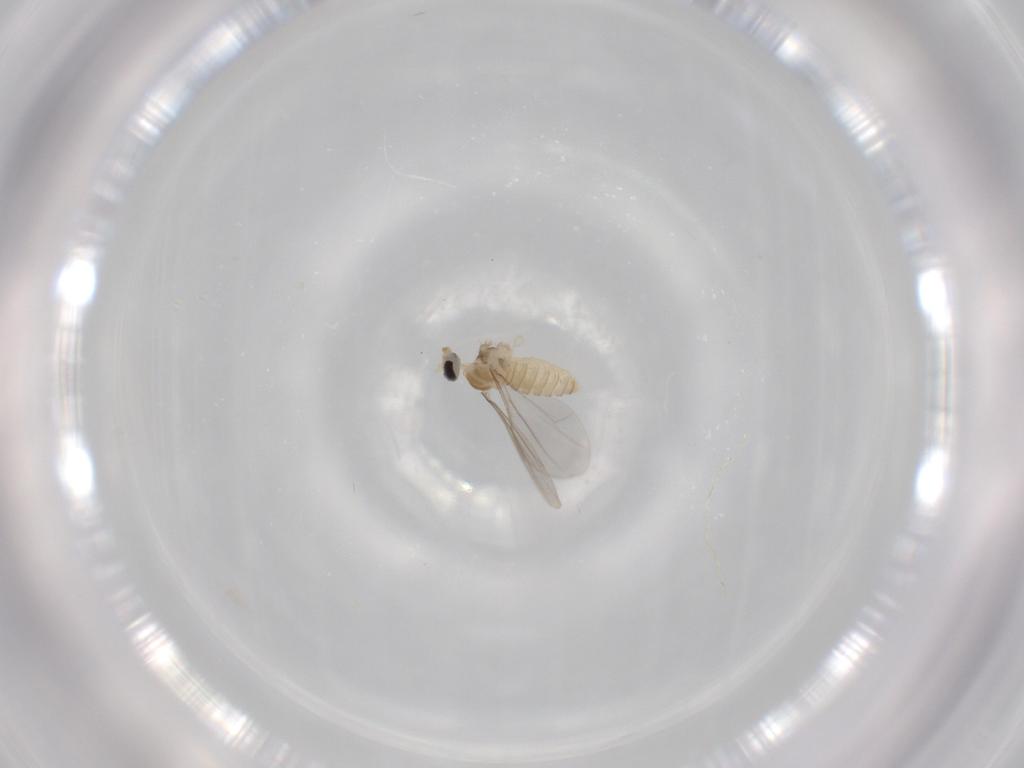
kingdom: Animalia
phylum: Arthropoda
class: Insecta
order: Diptera
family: Cecidomyiidae
